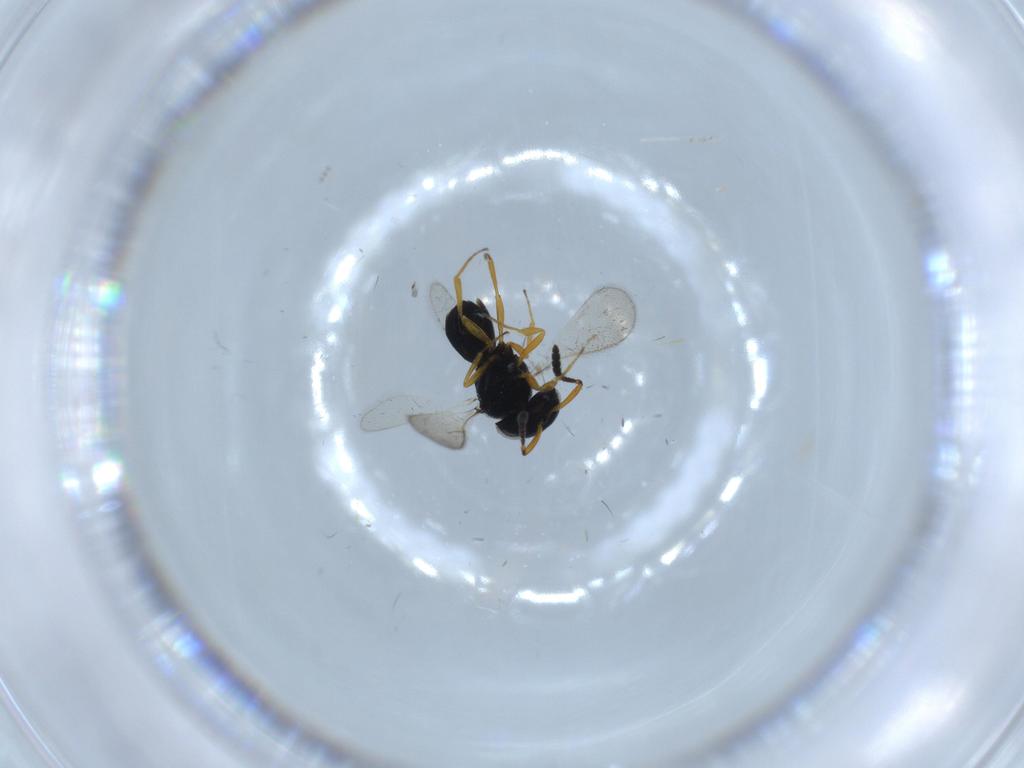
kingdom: Animalia
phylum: Arthropoda
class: Insecta
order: Hymenoptera
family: Scelionidae
